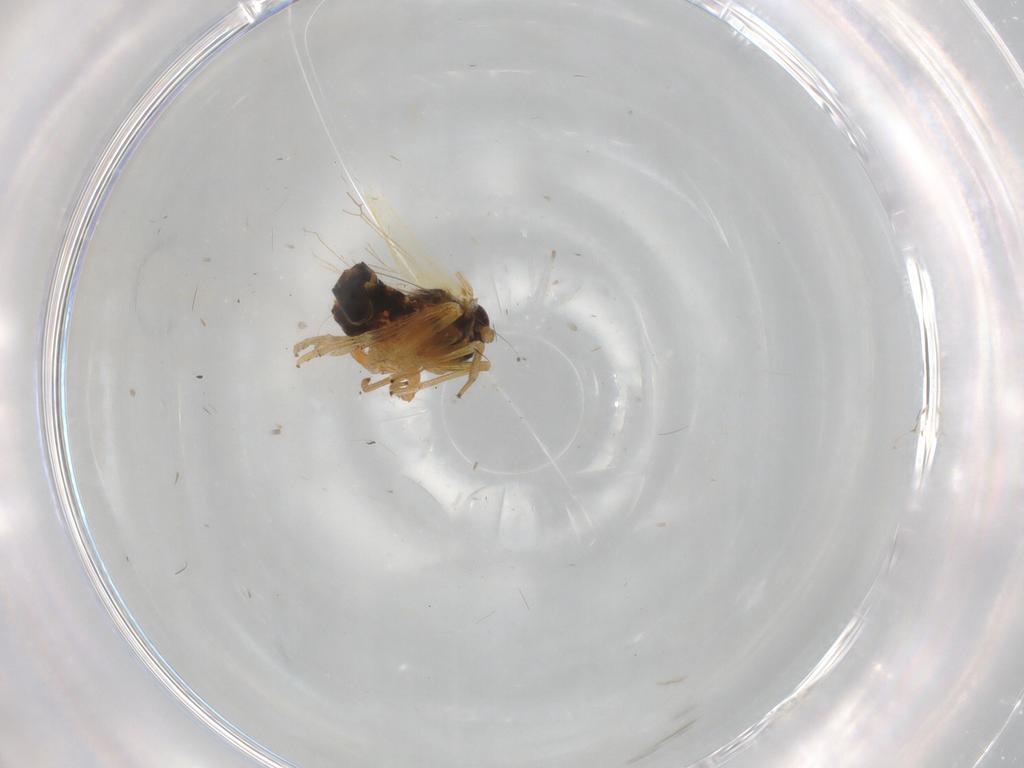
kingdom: Animalia
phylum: Arthropoda
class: Insecta
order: Hemiptera
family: Delphacidae
